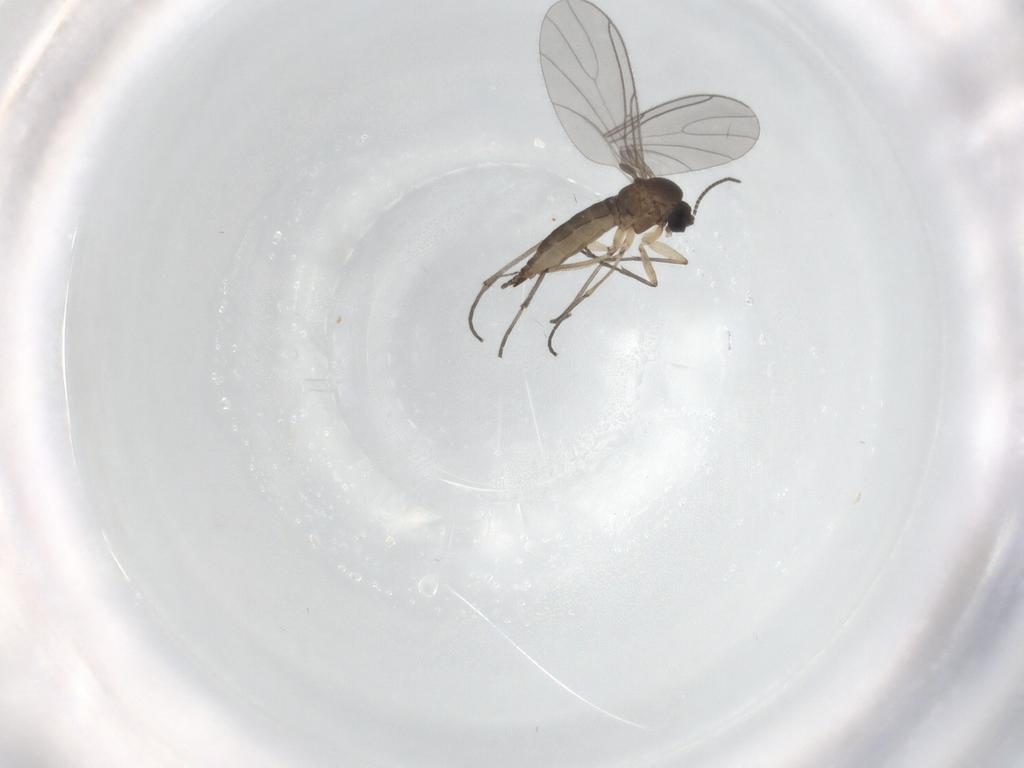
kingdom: Animalia
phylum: Arthropoda
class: Insecta
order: Diptera
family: Sciaridae
